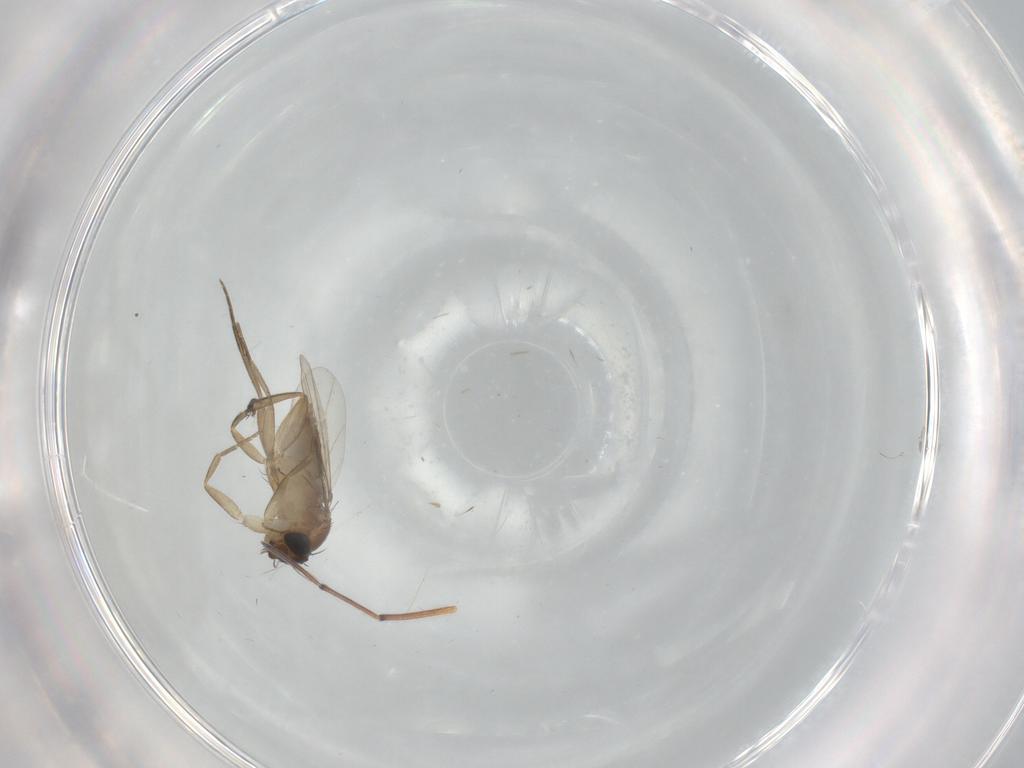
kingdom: Animalia
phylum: Arthropoda
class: Insecta
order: Diptera
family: Phoridae
